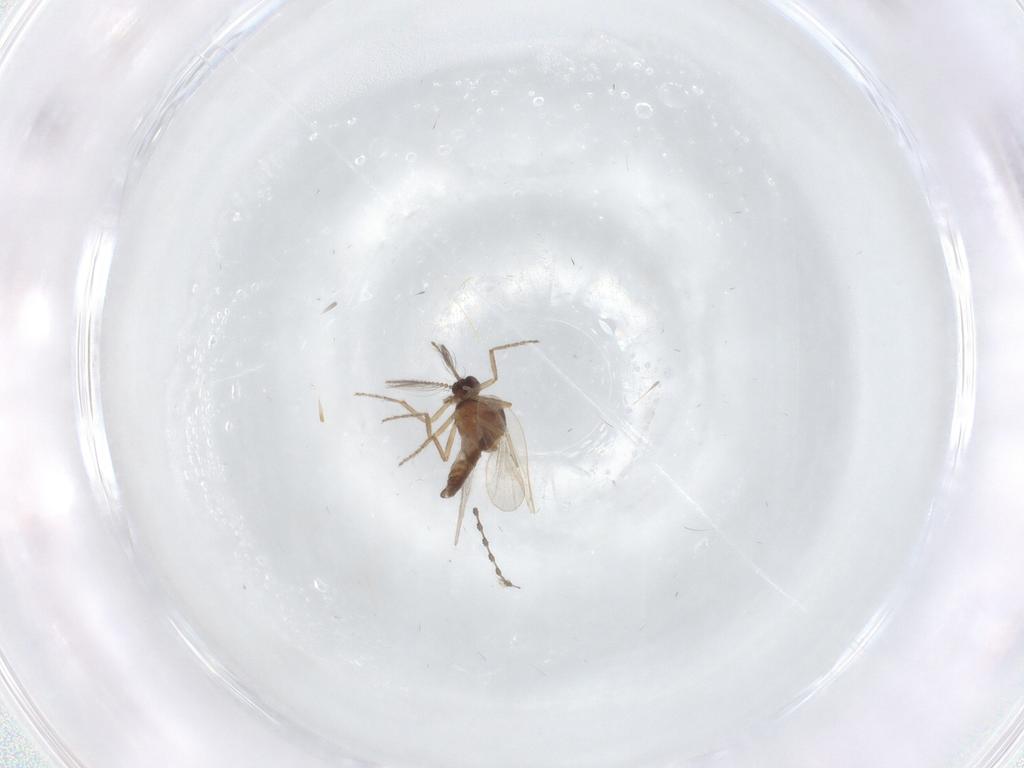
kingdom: Animalia
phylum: Arthropoda
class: Insecta
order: Diptera
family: Ceratopogonidae
